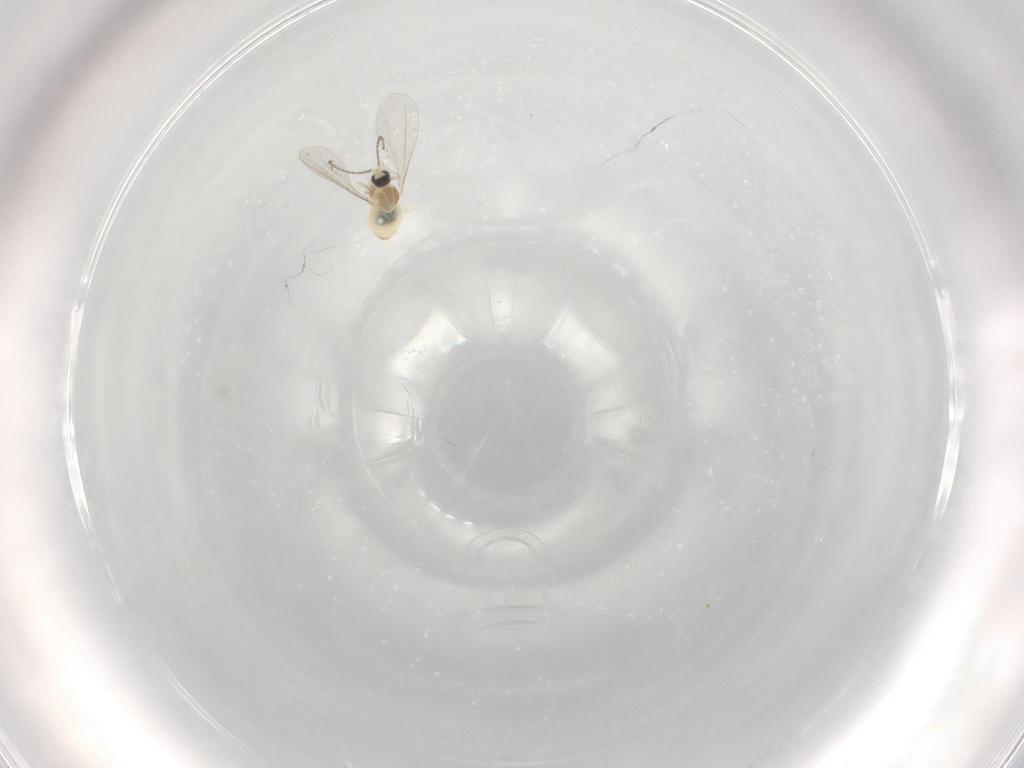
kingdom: Animalia
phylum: Arthropoda
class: Insecta
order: Diptera
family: Cecidomyiidae
